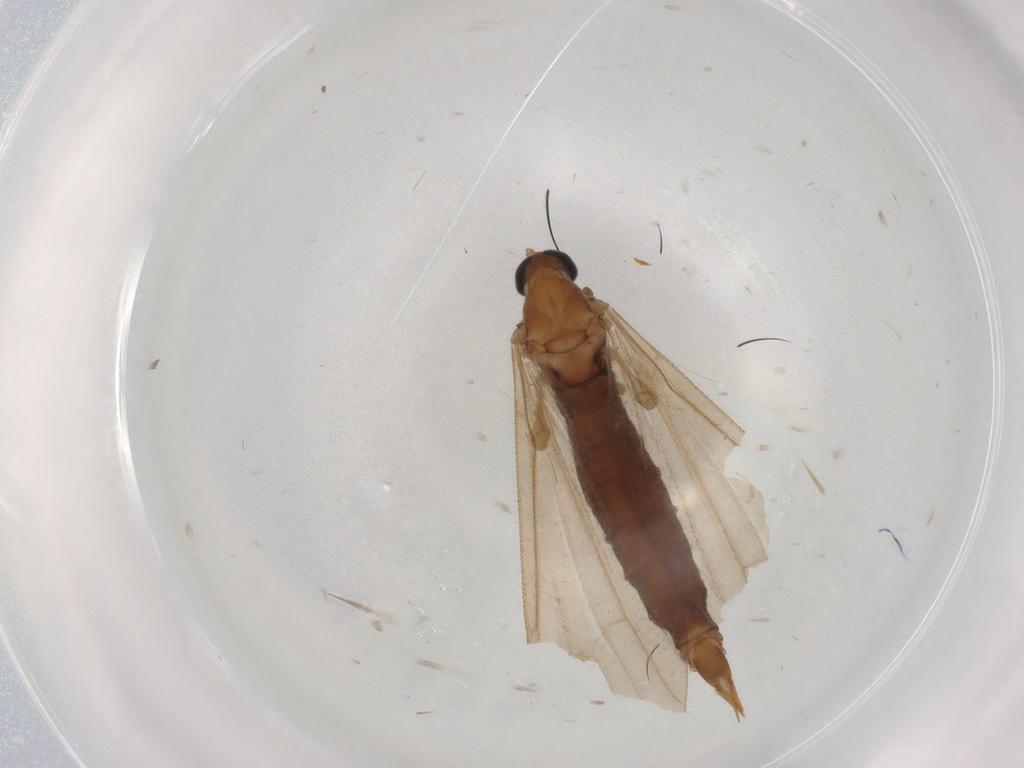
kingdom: Animalia
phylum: Arthropoda
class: Insecta
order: Diptera
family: Limoniidae
